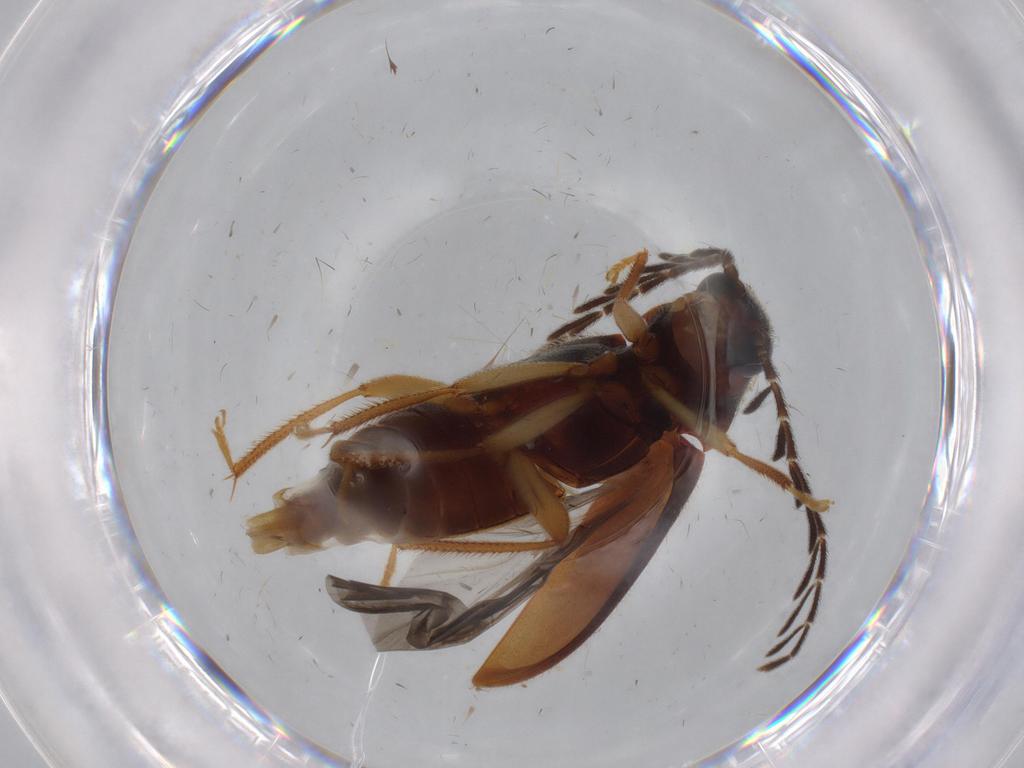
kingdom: Animalia
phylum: Arthropoda
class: Insecta
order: Coleoptera
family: Ptilodactylidae
